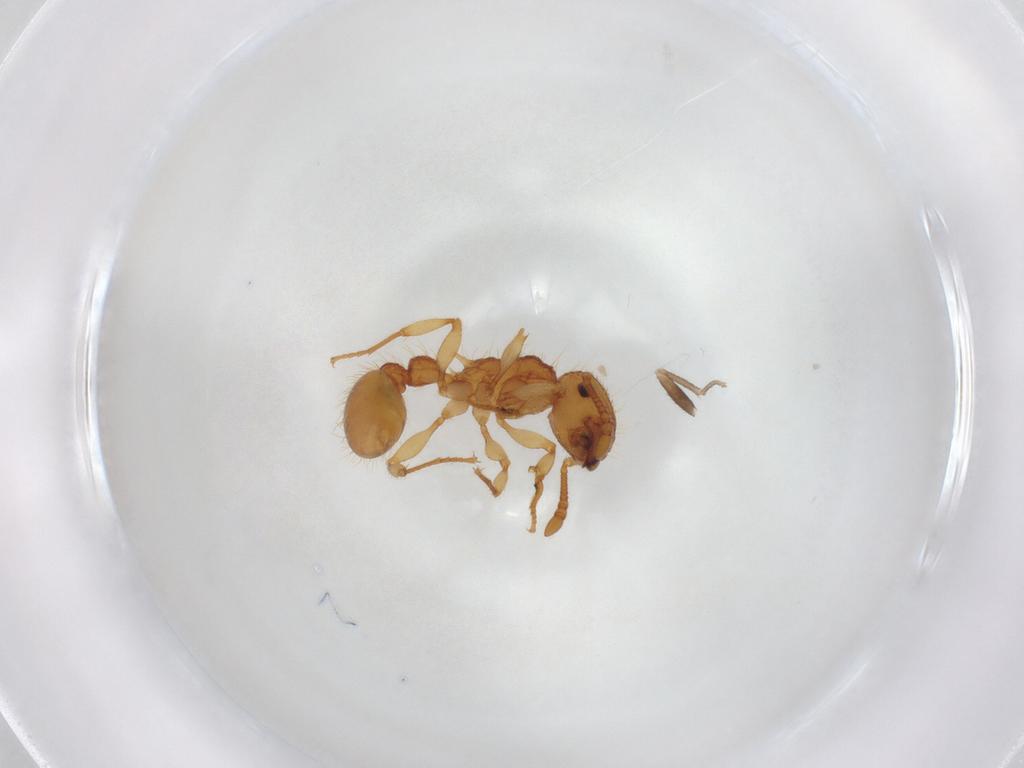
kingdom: Animalia
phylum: Arthropoda
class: Insecta
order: Hymenoptera
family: Formicidae
